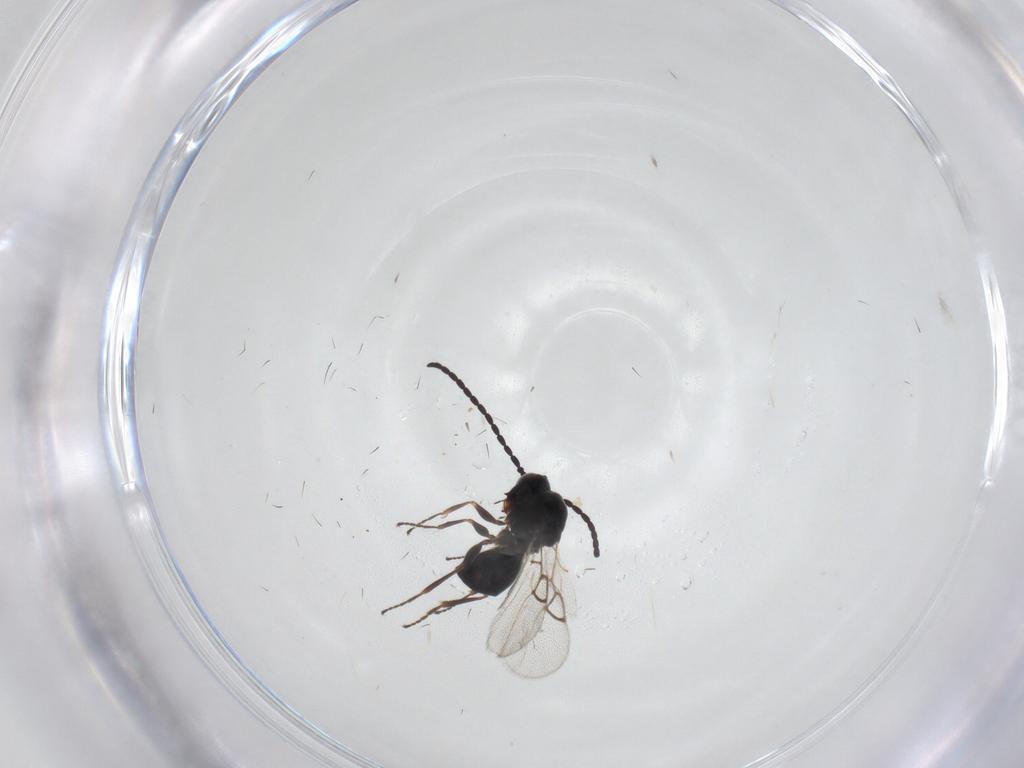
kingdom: Animalia
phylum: Arthropoda
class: Insecta
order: Hymenoptera
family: Figitidae
